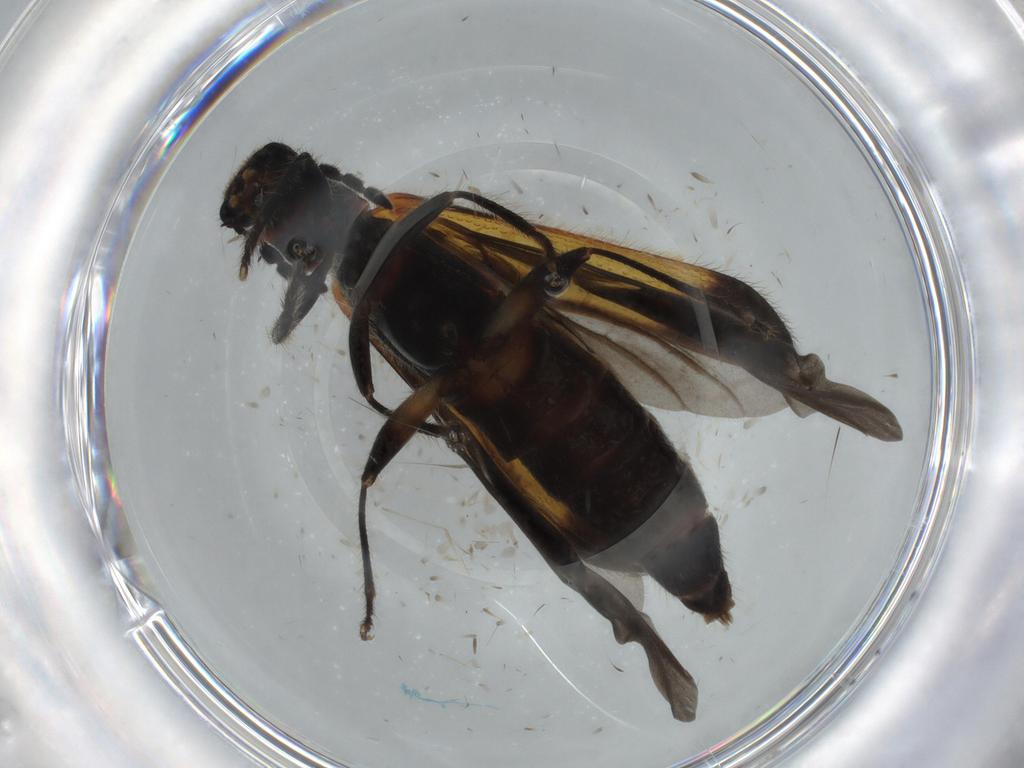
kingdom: Animalia
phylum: Arthropoda
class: Insecta
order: Coleoptera
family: Cleridae
